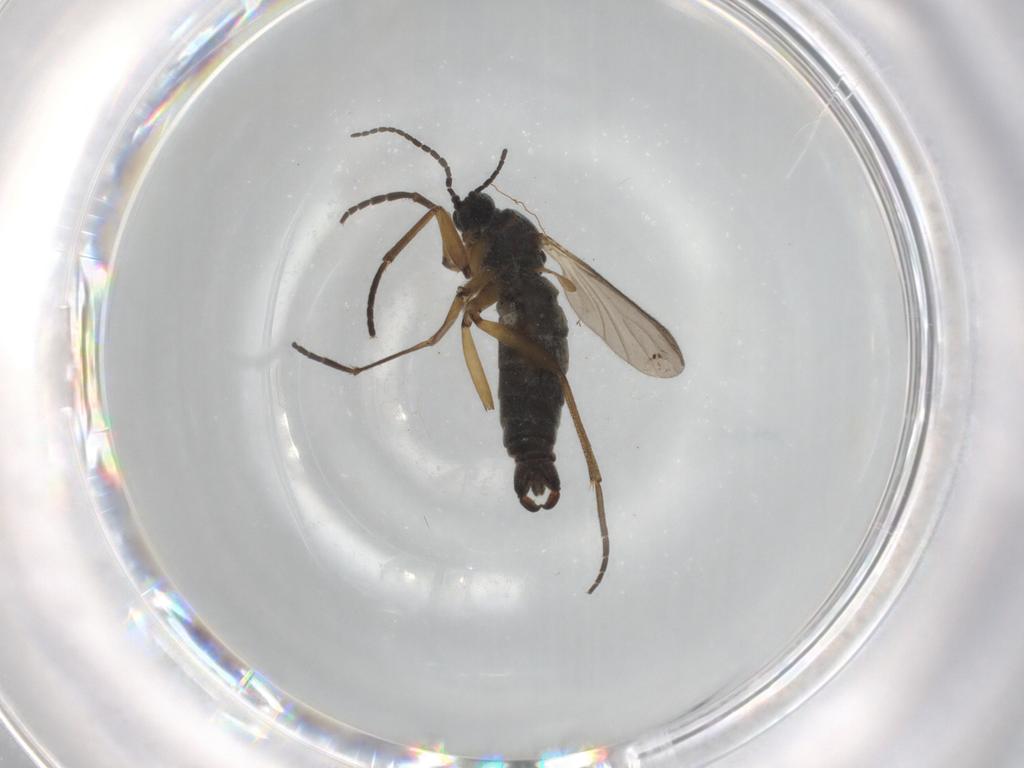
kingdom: Animalia
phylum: Arthropoda
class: Insecta
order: Diptera
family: Sciaridae
